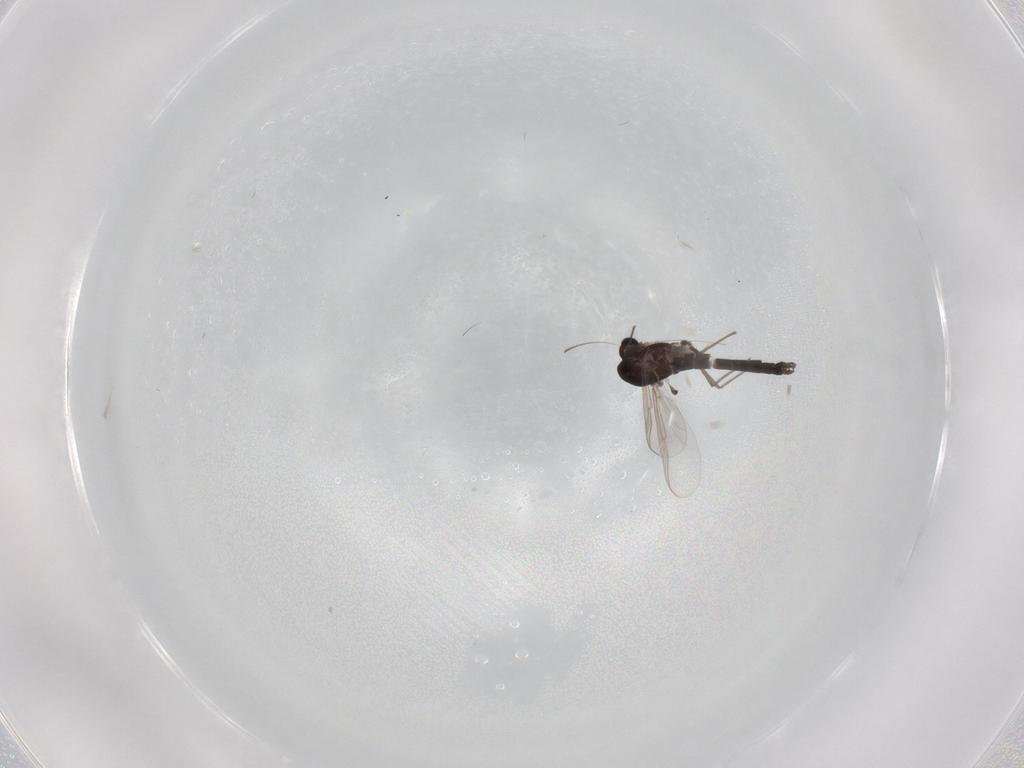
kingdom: Animalia
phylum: Arthropoda
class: Insecta
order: Diptera
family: Chironomidae
